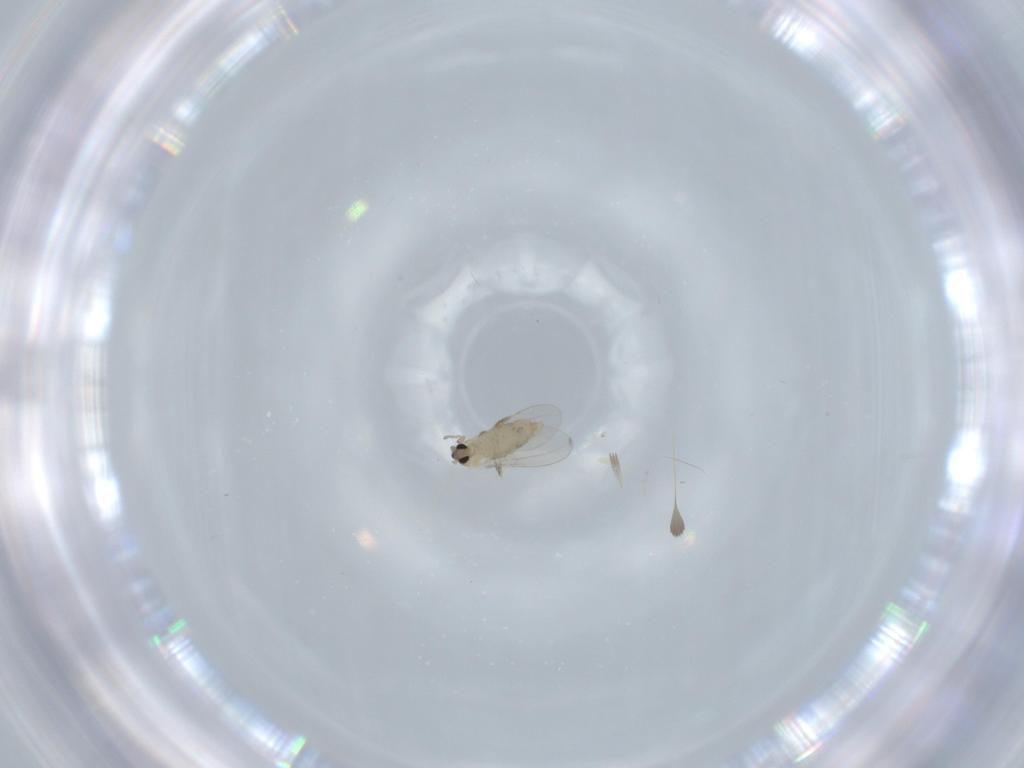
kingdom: Animalia
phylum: Arthropoda
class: Insecta
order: Diptera
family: Cecidomyiidae
